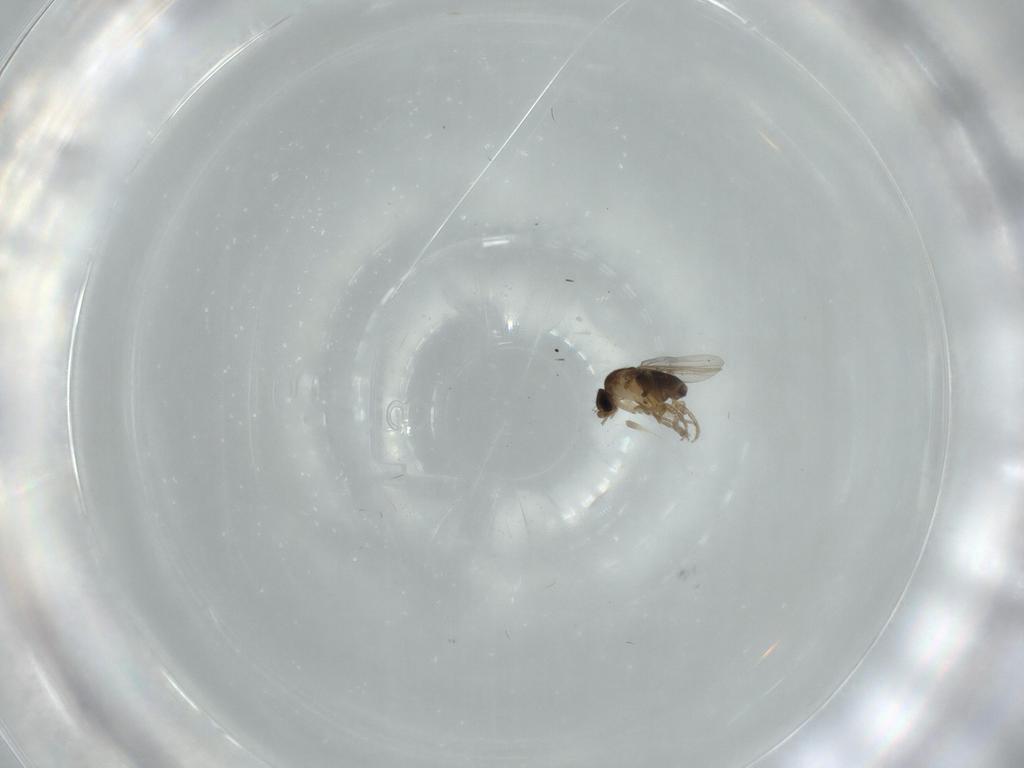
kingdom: Animalia
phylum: Arthropoda
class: Insecta
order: Diptera
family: Phoridae
